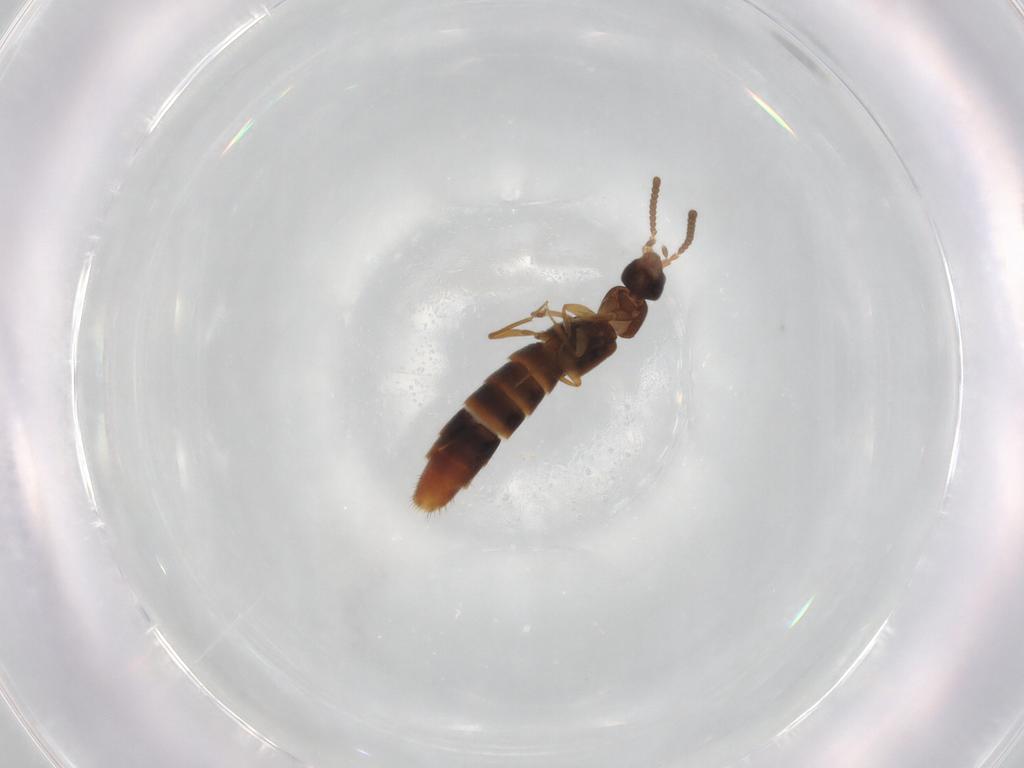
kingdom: Animalia
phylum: Arthropoda
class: Insecta
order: Coleoptera
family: Staphylinidae
